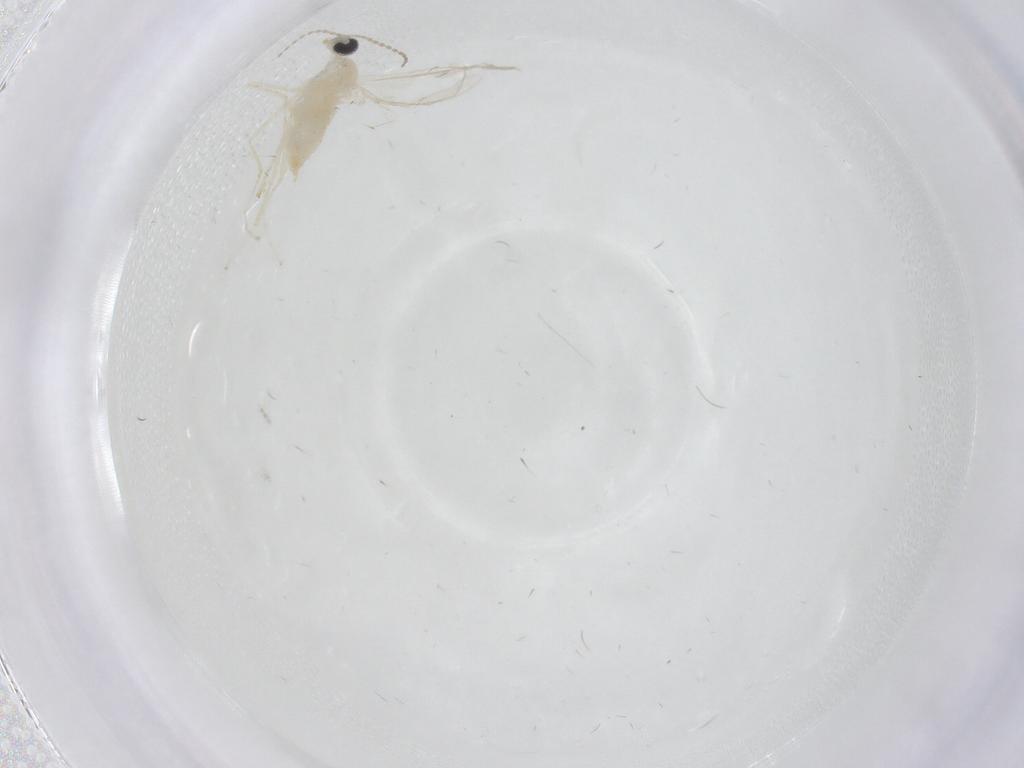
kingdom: Animalia
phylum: Arthropoda
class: Insecta
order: Diptera
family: Cecidomyiidae
